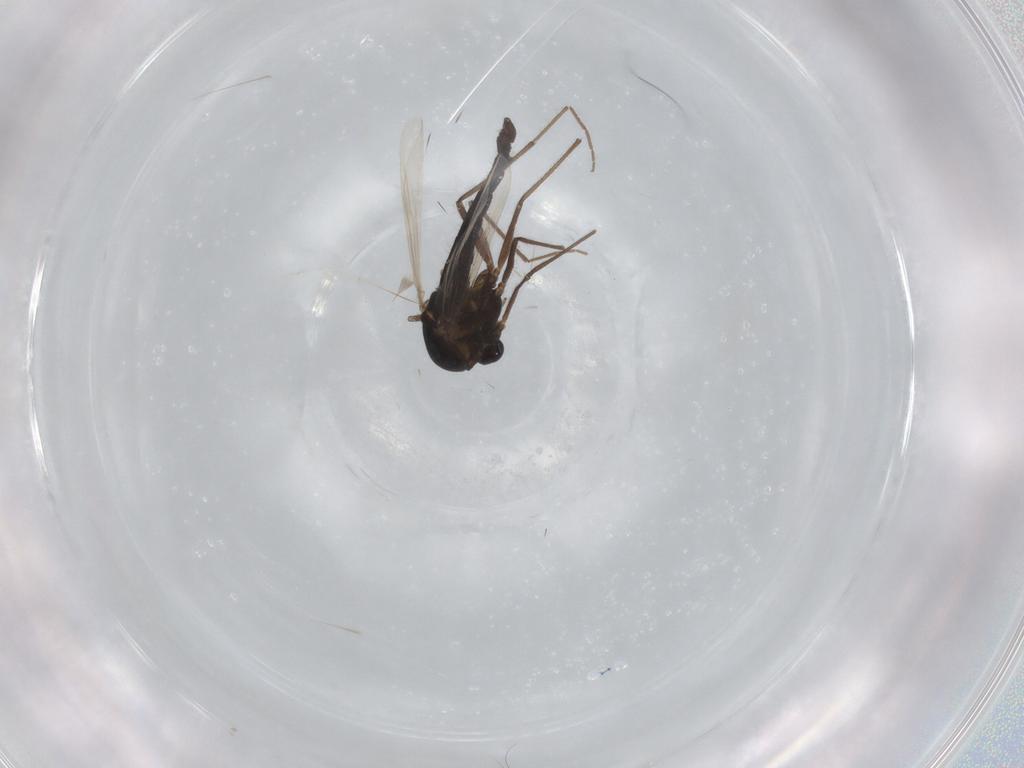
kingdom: Animalia
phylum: Arthropoda
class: Insecta
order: Diptera
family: Chironomidae
